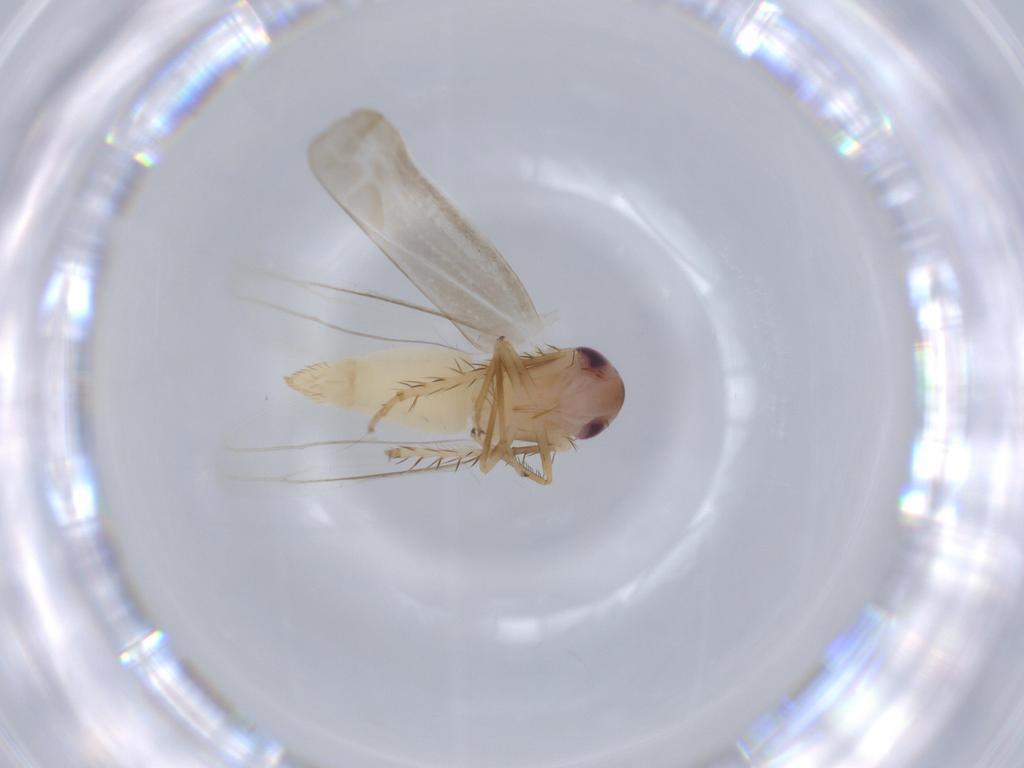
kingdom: Animalia
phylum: Arthropoda
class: Insecta
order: Hemiptera
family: Cicadellidae
